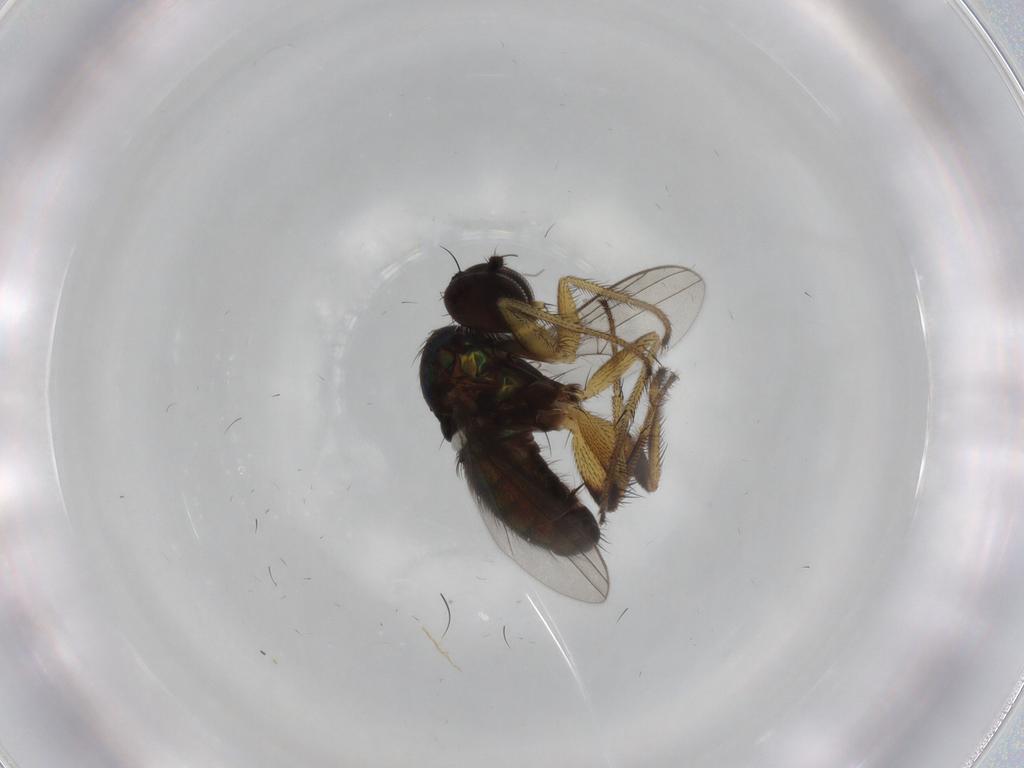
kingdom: Animalia
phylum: Arthropoda
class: Insecta
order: Diptera
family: Dolichopodidae
